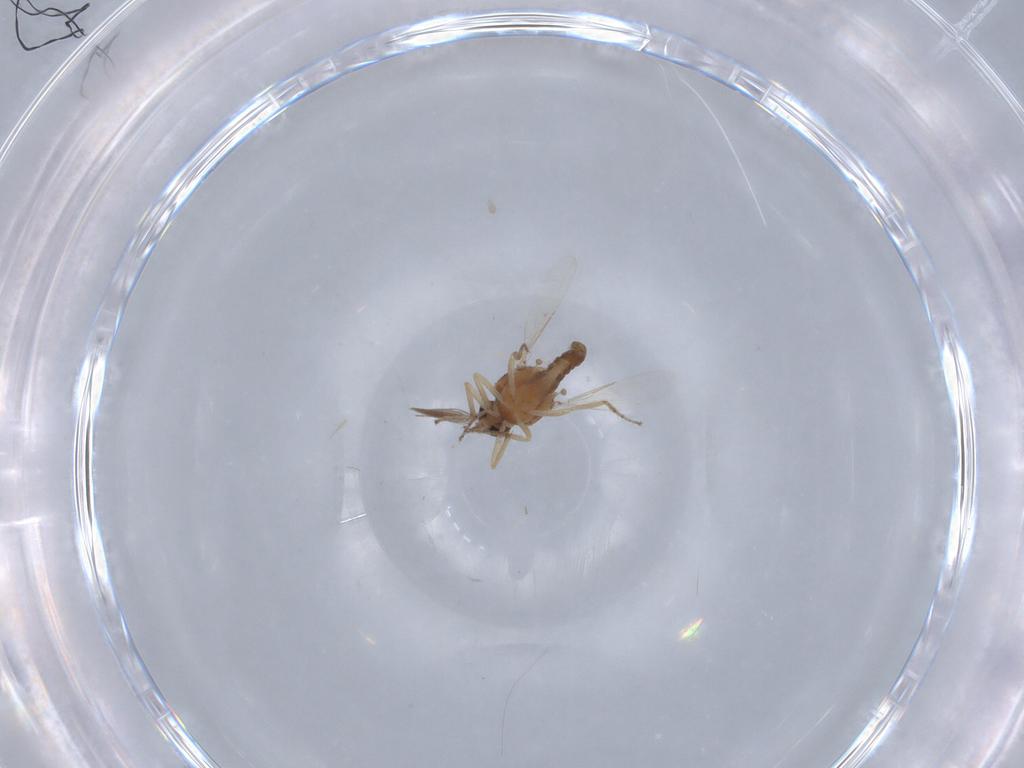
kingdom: Animalia
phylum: Arthropoda
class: Insecta
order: Diptera
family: Ceratopogonidae
